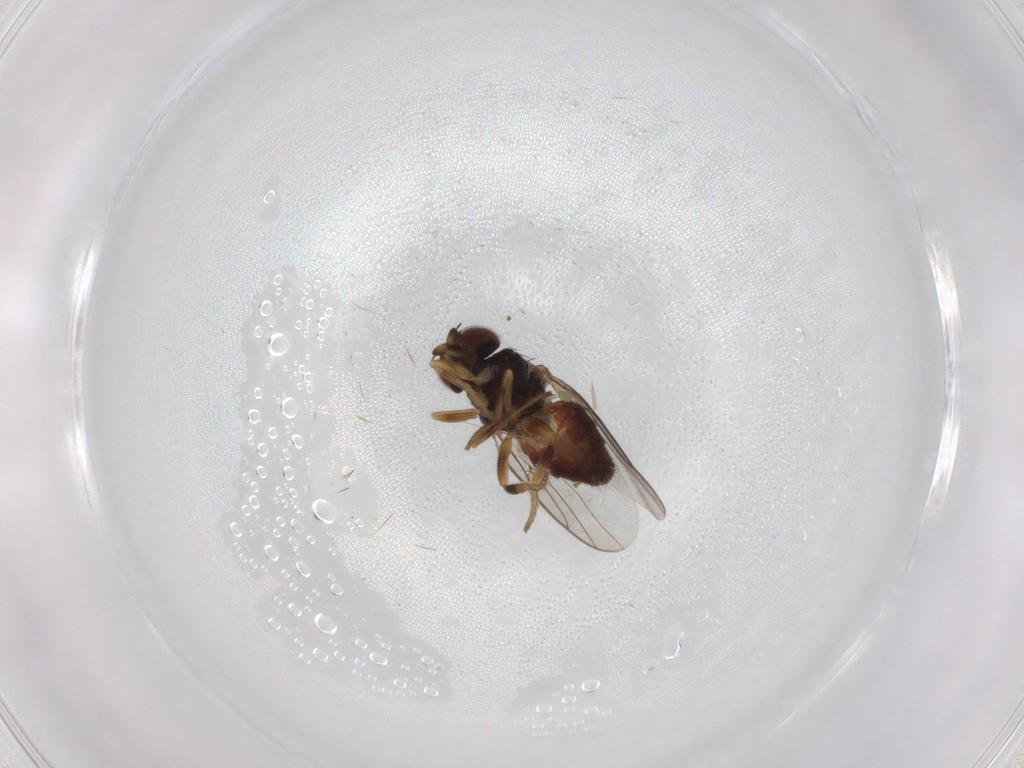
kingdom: Animalia
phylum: Arthropoda
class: Insecta
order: Diptera
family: Chloropidae
